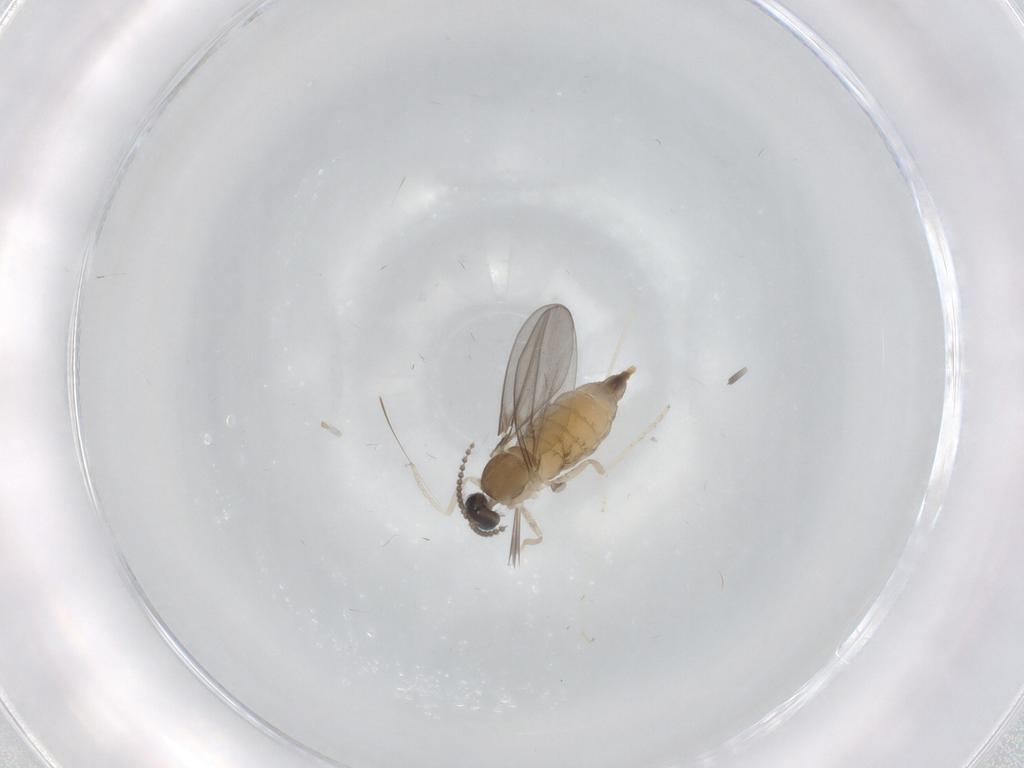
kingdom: Animalia
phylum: Arthropoda
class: Insecta
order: Diptera
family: Cecidomyiidae
